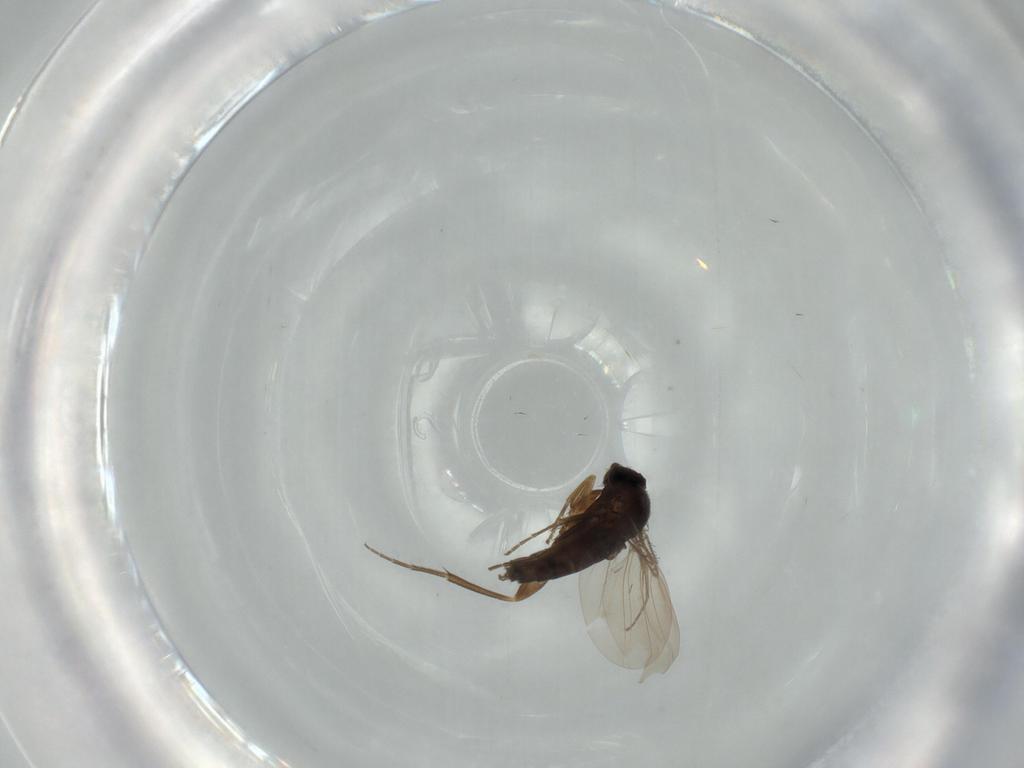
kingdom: Animalia
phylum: Arthropoda
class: Insecta
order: Diptera
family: Phoridae
